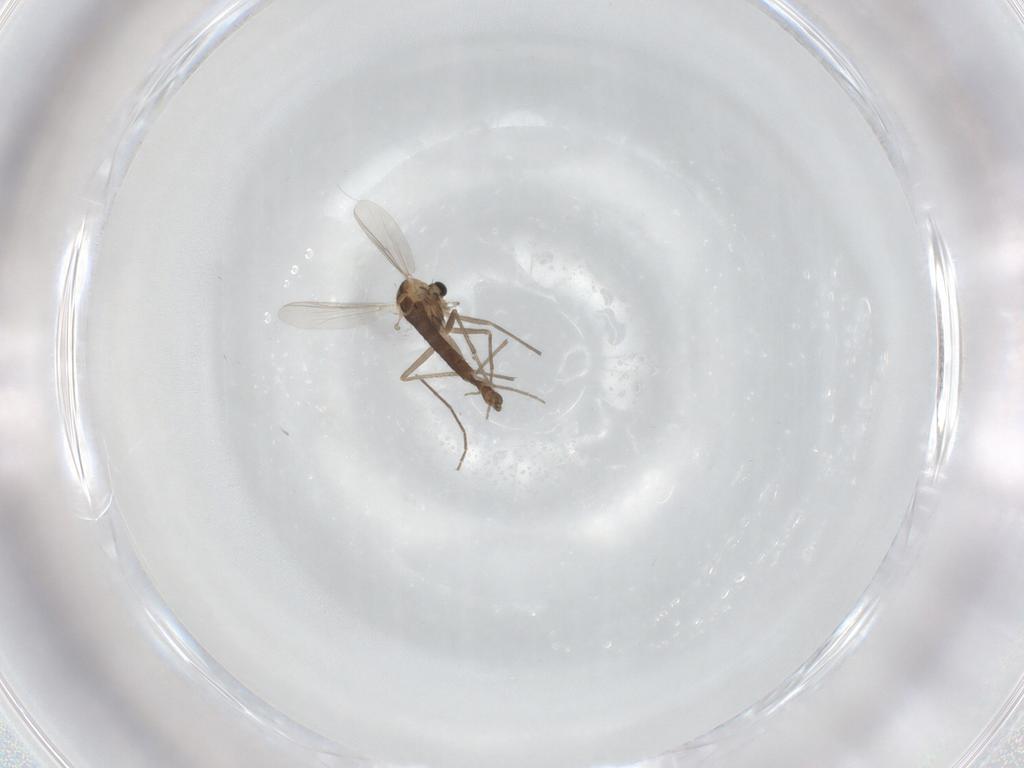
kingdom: Animalia
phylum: Arthropoda
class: Insecta
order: Diptera
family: Chironomidae
